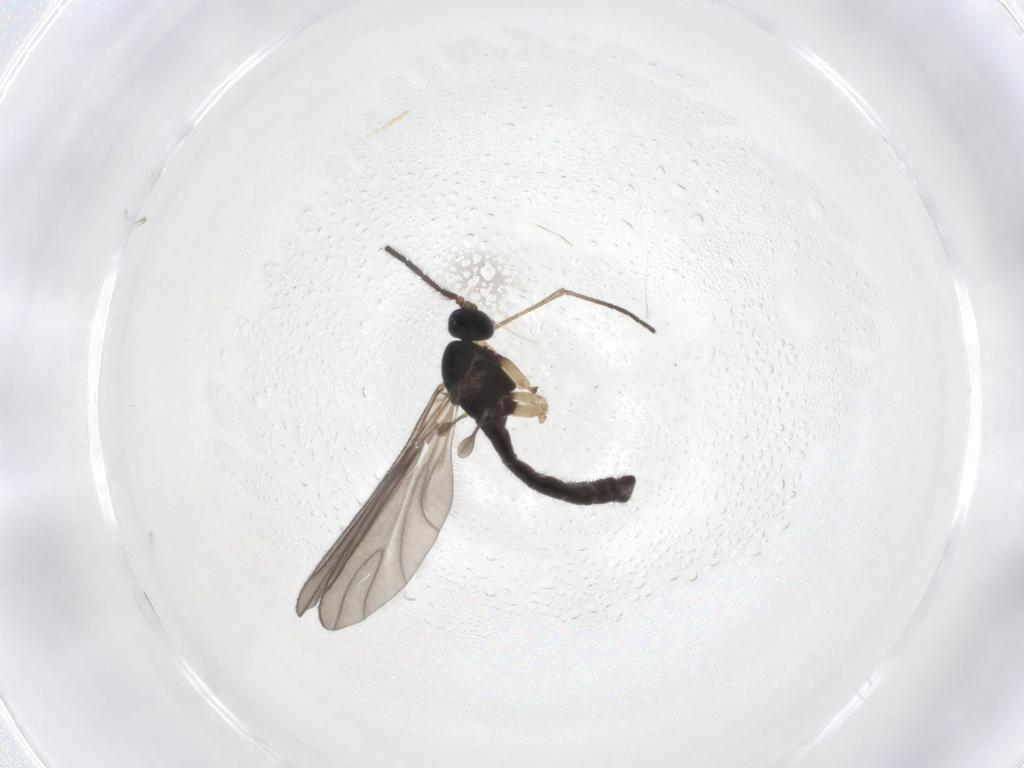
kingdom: Animalia
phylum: Arthropoda
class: Insecta
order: Diptera
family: Sciaridae
